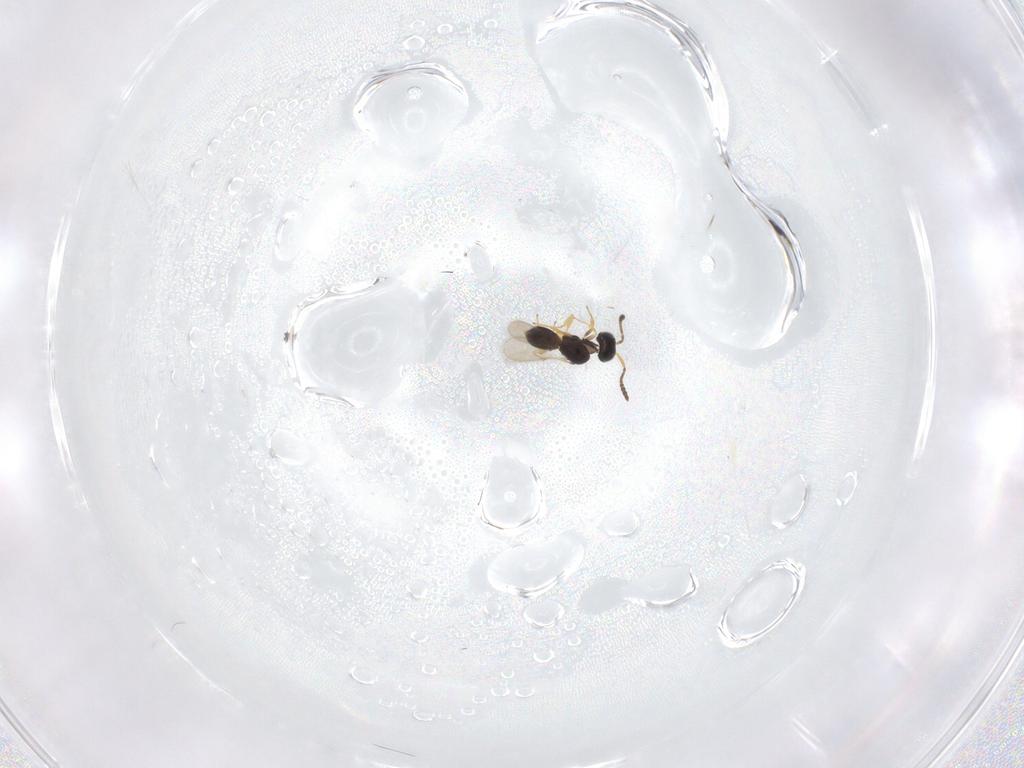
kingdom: Animalia
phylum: Arthropoda
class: Insecta
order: Hymenoptera
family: Scelionidae
